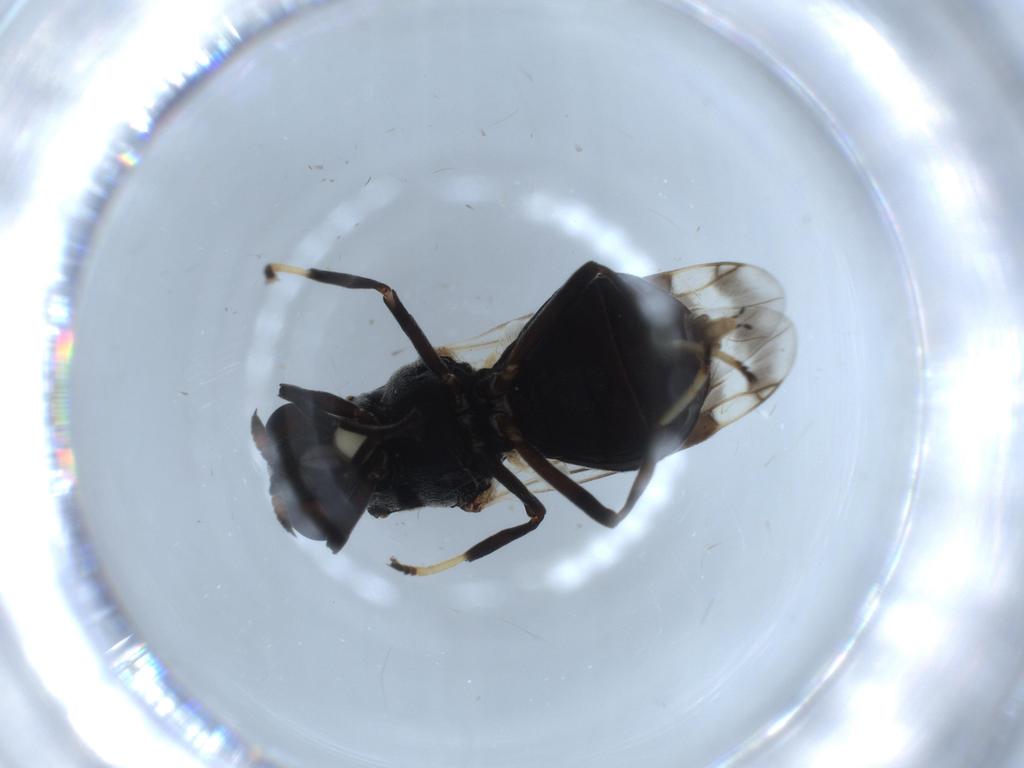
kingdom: Animalia
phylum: Arthropoda
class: Insecta
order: Diptera
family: Stratiomyidae
